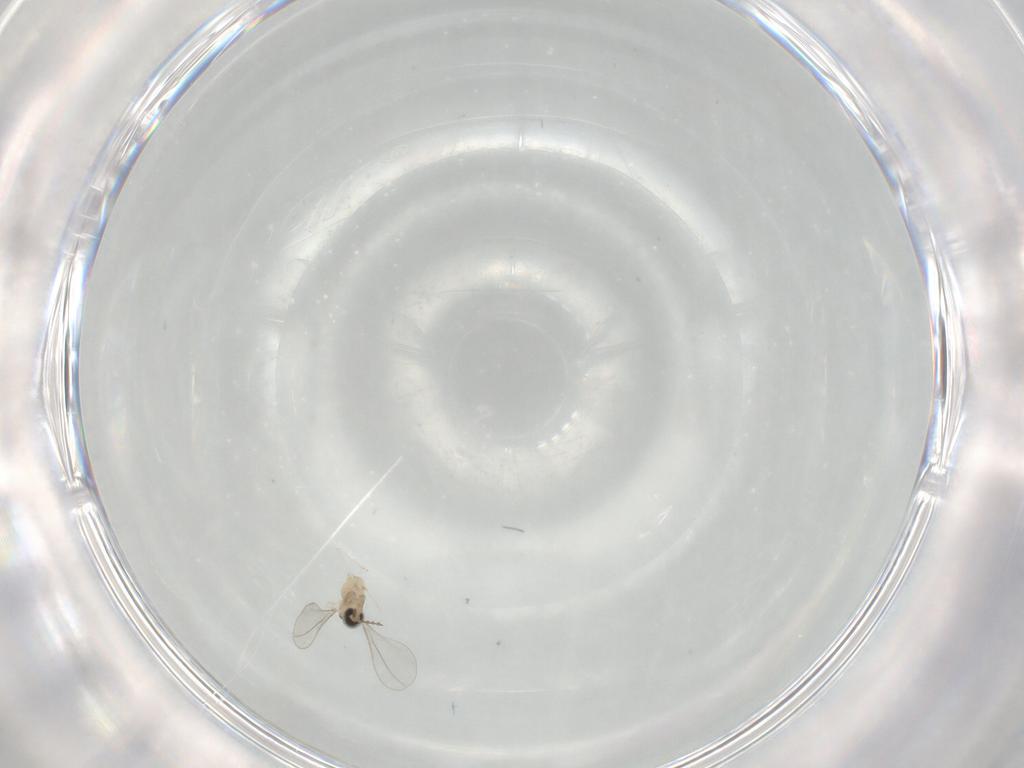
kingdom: Animalia
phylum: Arthropoda
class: Insecta
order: Diptera
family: Cecidomyiidae
